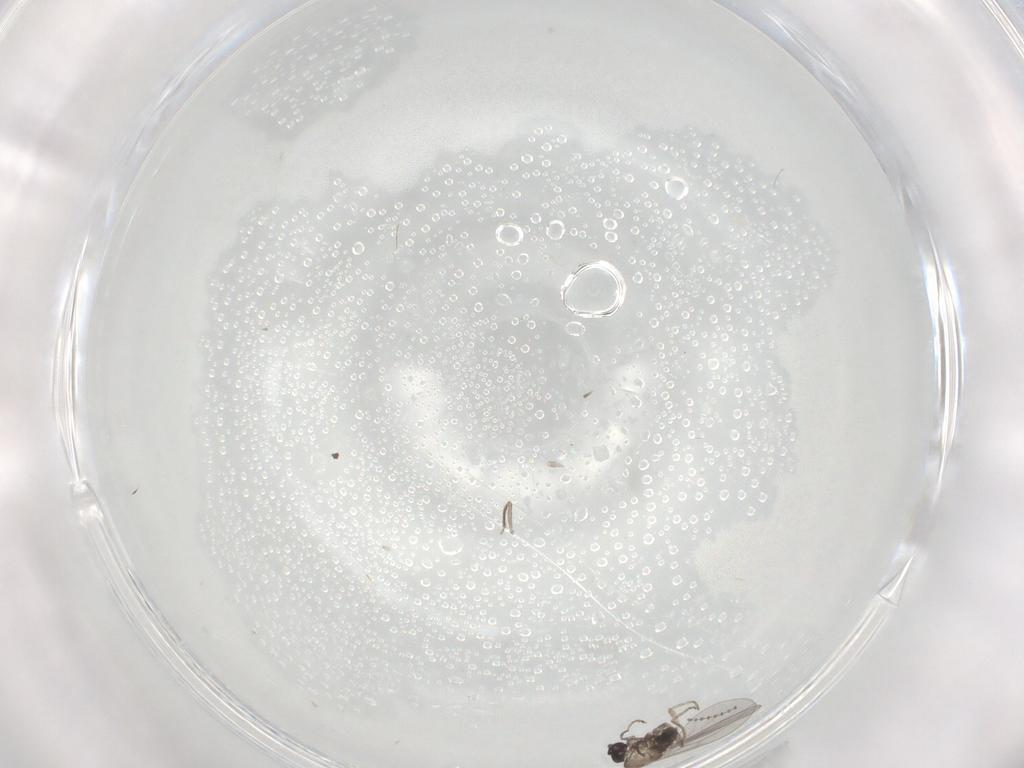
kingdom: Animalia
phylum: Arthropoda
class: Insecta
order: Diptera
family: Cecidomyiidae
